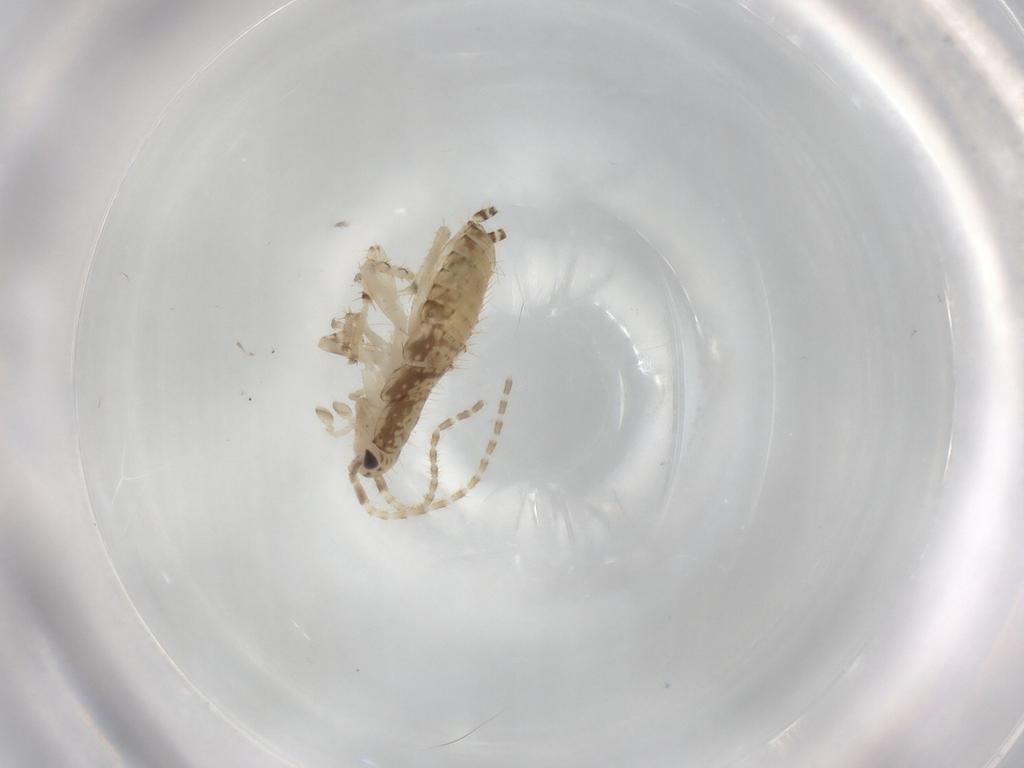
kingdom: Animalia
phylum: Arthropoda
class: Insecta
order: Blattodea
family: Ectobiidae
